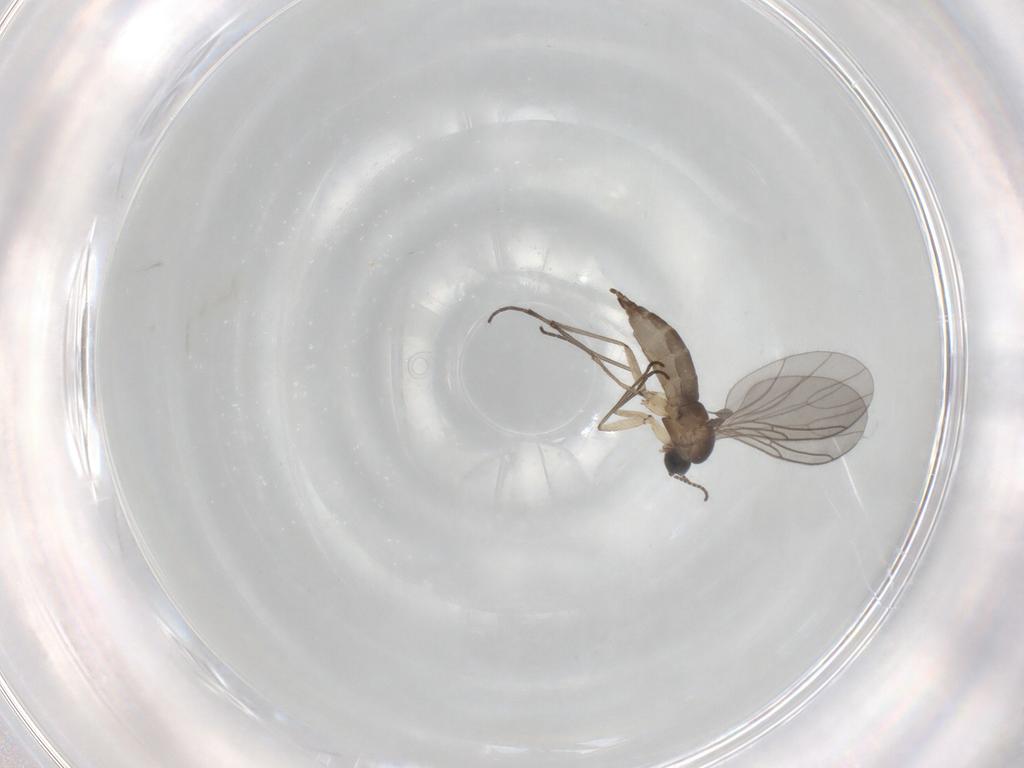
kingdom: Animalia
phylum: Arthropoda
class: Insecta
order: Diptera
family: Sciaridae
